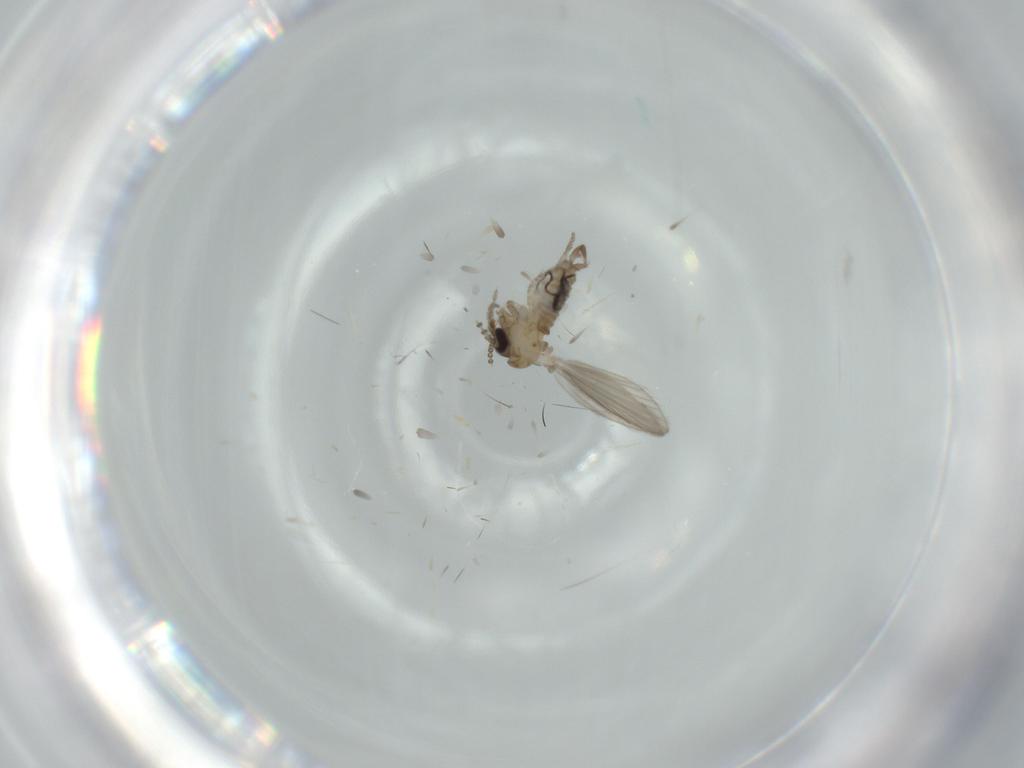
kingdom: Animalia
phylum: Arthropoda
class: Insecta
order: Diptera
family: Psychodidae
